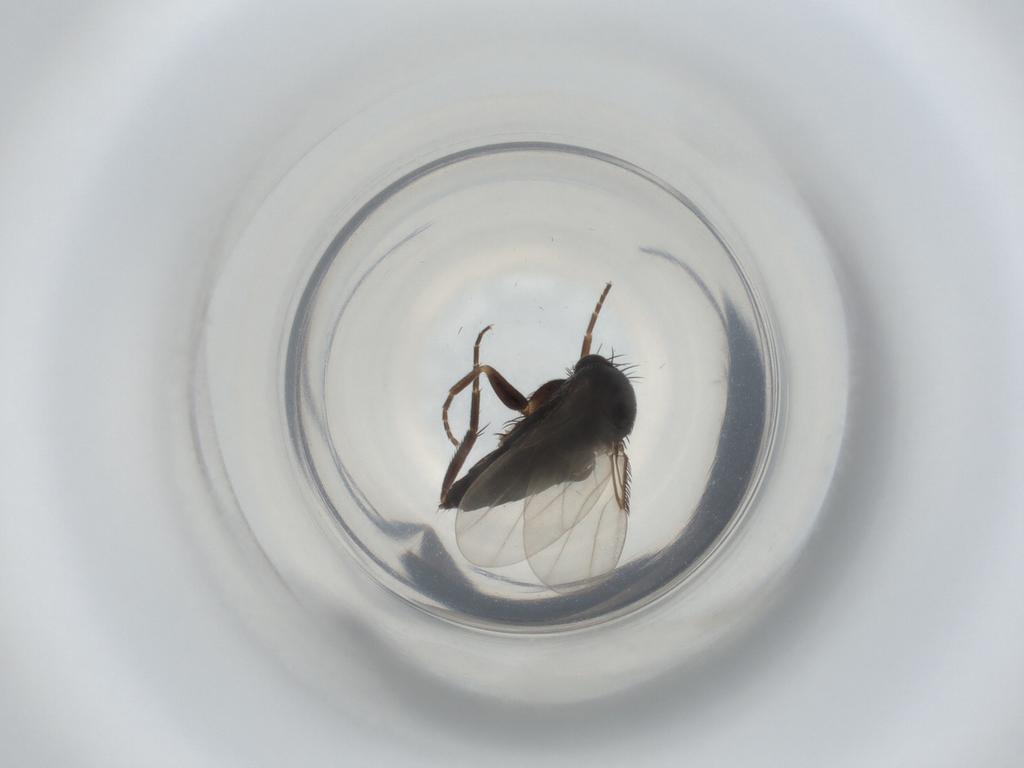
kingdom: Animalia
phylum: Arthropoda
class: Insecta
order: Diptera
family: Phoridae
